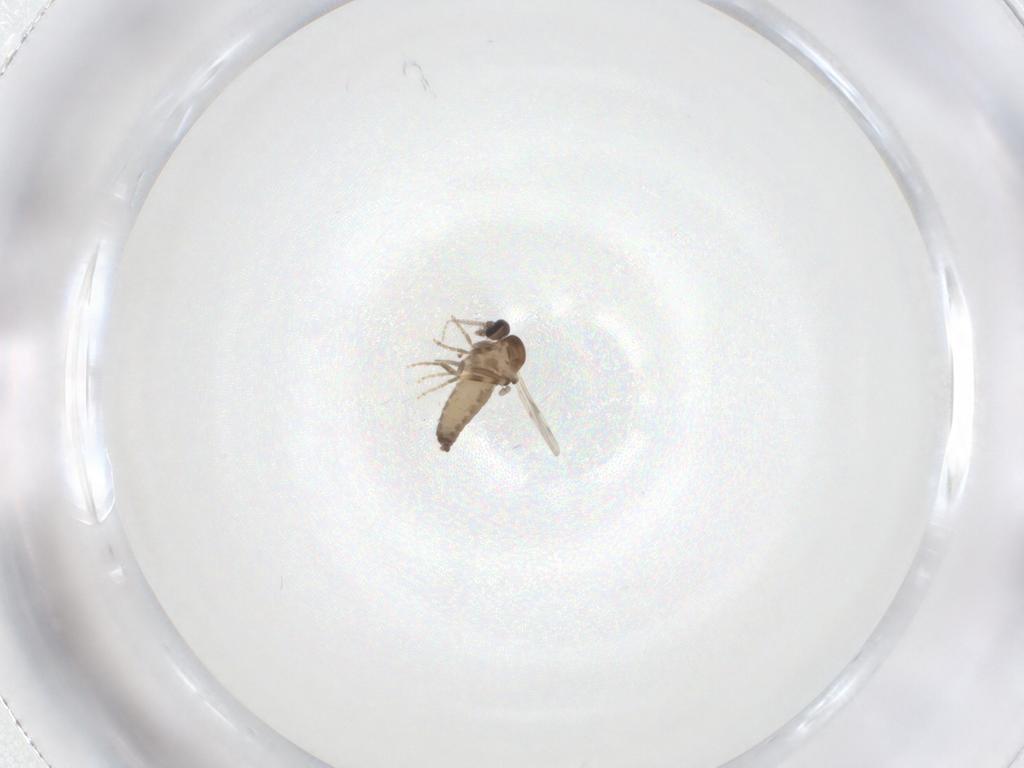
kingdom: Animalia
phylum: Arthropoda
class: Insecta
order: Diptera
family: Ceratopogonidae
